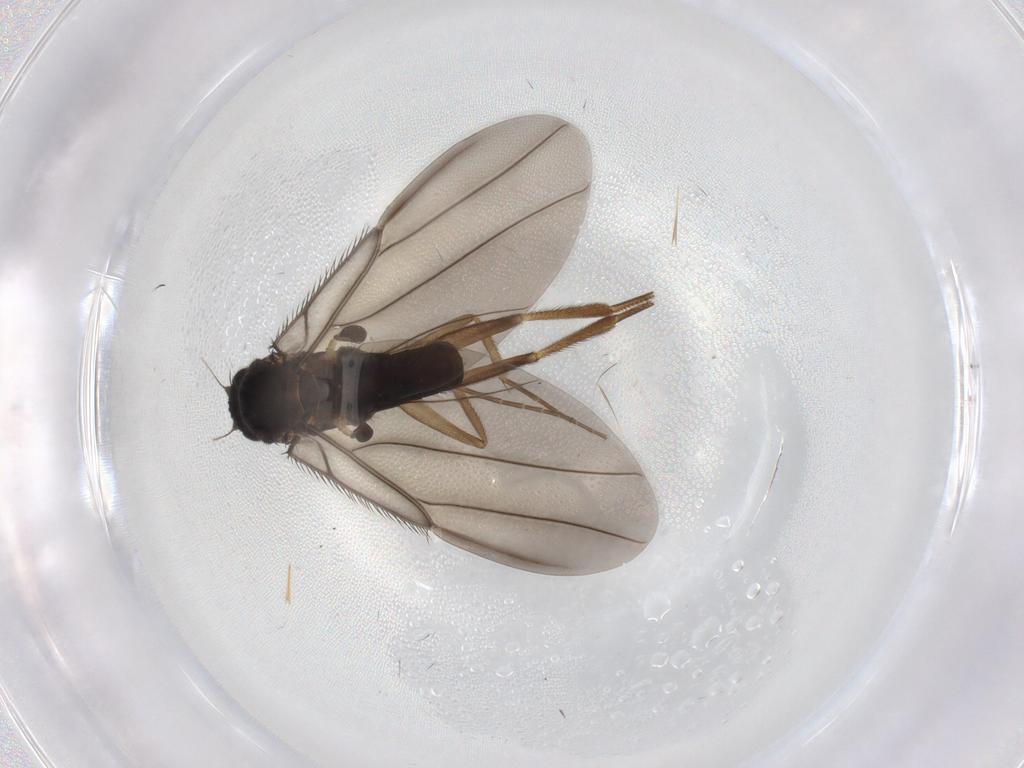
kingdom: Animalia
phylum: Arthropoda
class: Insecta
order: Diptera
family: Phoridae
